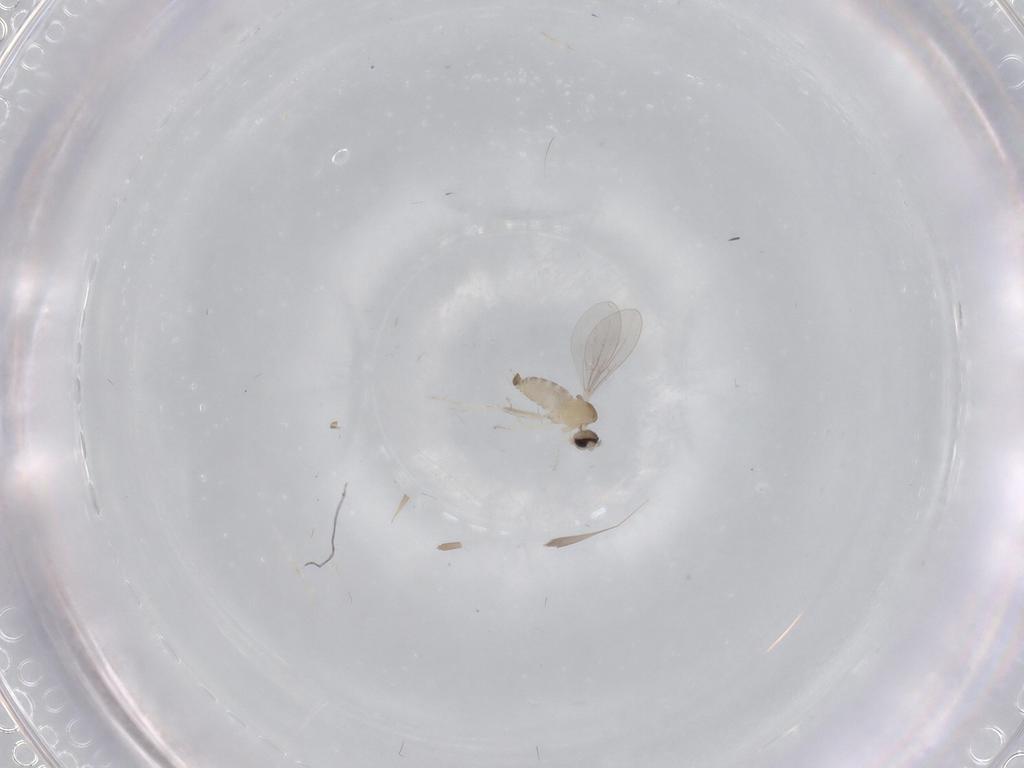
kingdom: Animalia
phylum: Arthropoda
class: Insecta
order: Diptera
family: Cecidomyiidae
